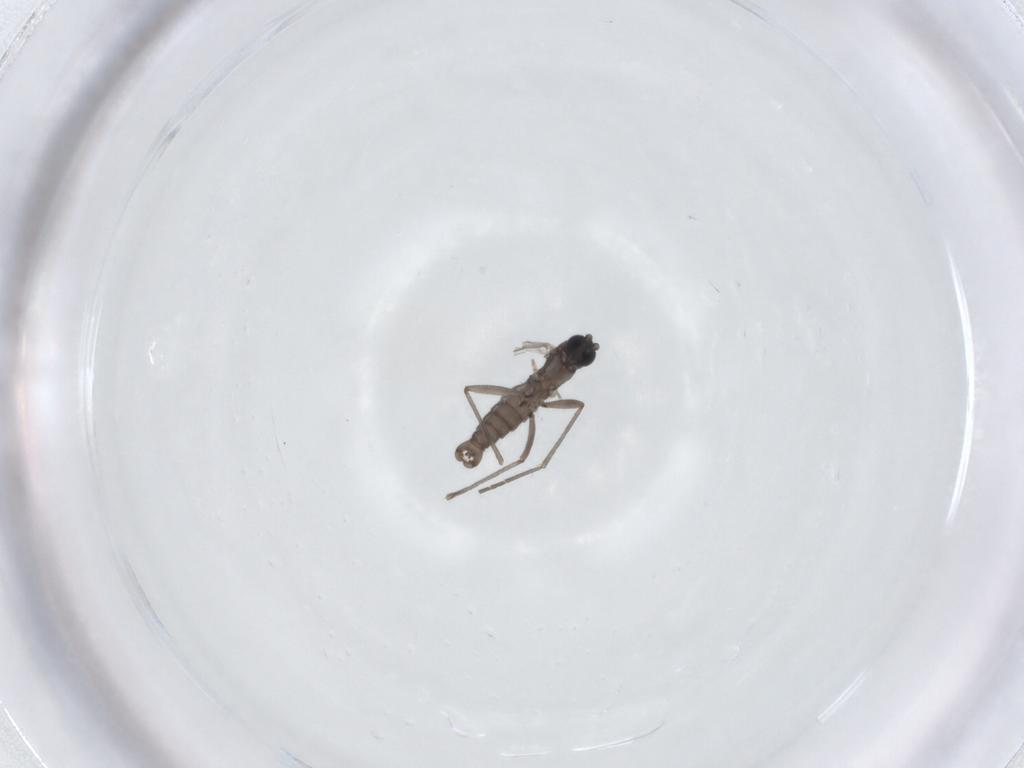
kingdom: Animalia
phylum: Arthropoda
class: Insecta
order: Diptera
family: Sciaridae
